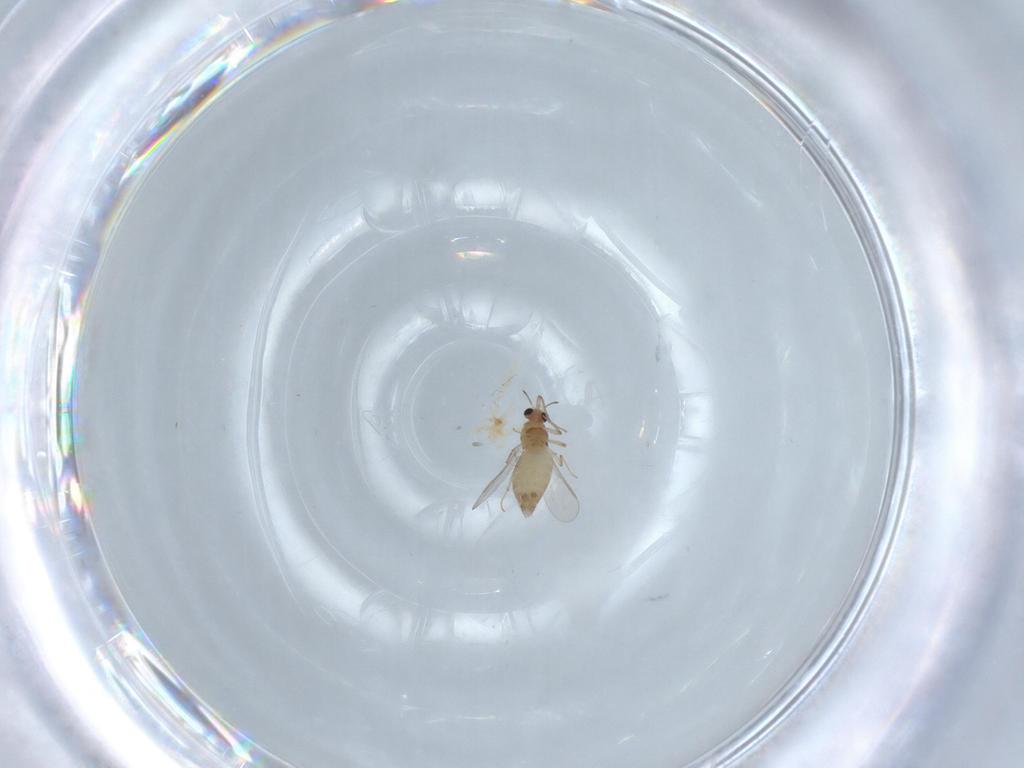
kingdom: Animalia
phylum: Arthropoda
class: Insecta
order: Diptera
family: Chironomidae
